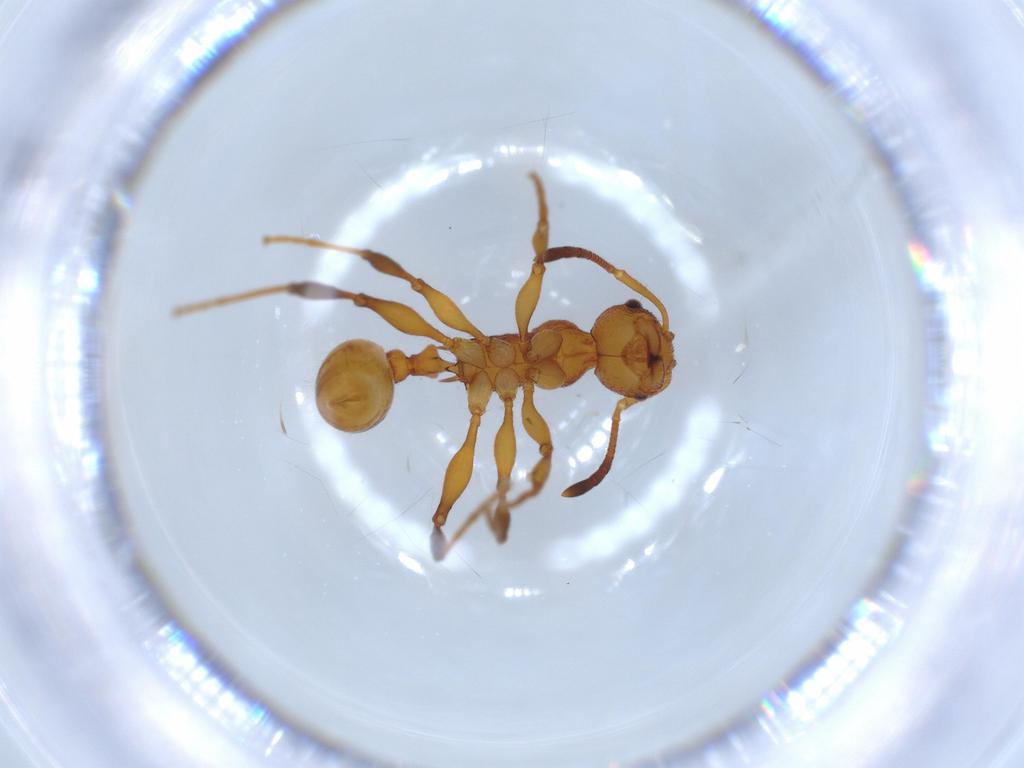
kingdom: Animalia
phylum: Arthropoda
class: Insecta
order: Hymenoptera
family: Formicidae
